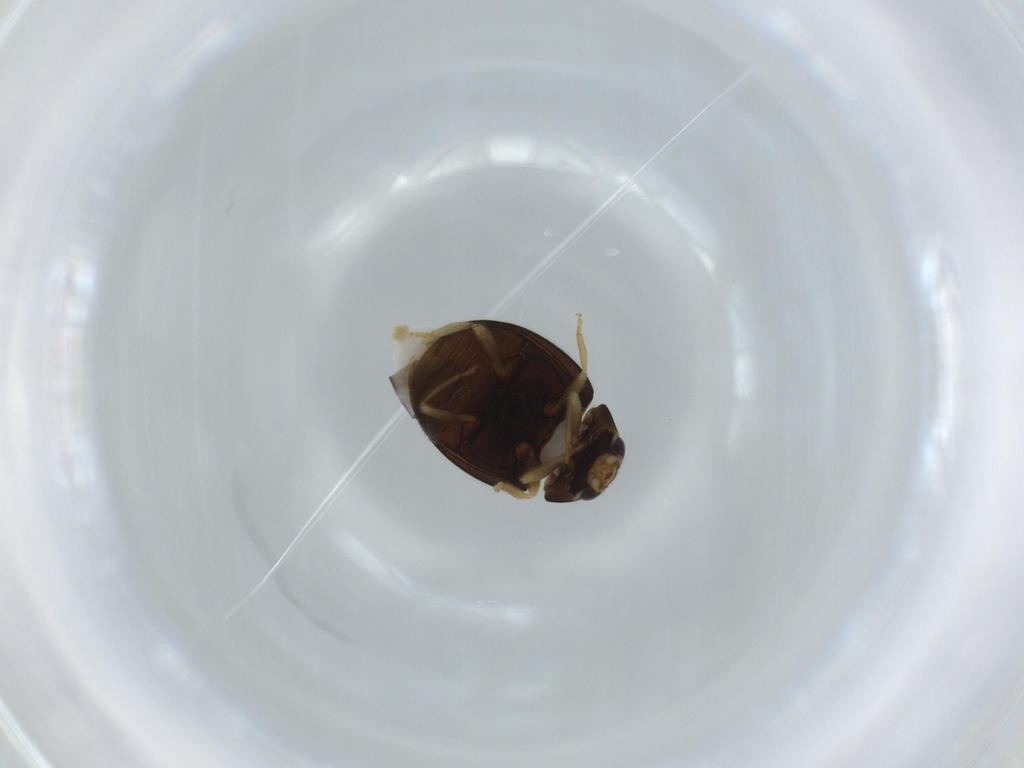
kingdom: Animalia
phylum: Arthropoda
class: Insecta
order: Coleoptera
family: Coccinellidae
